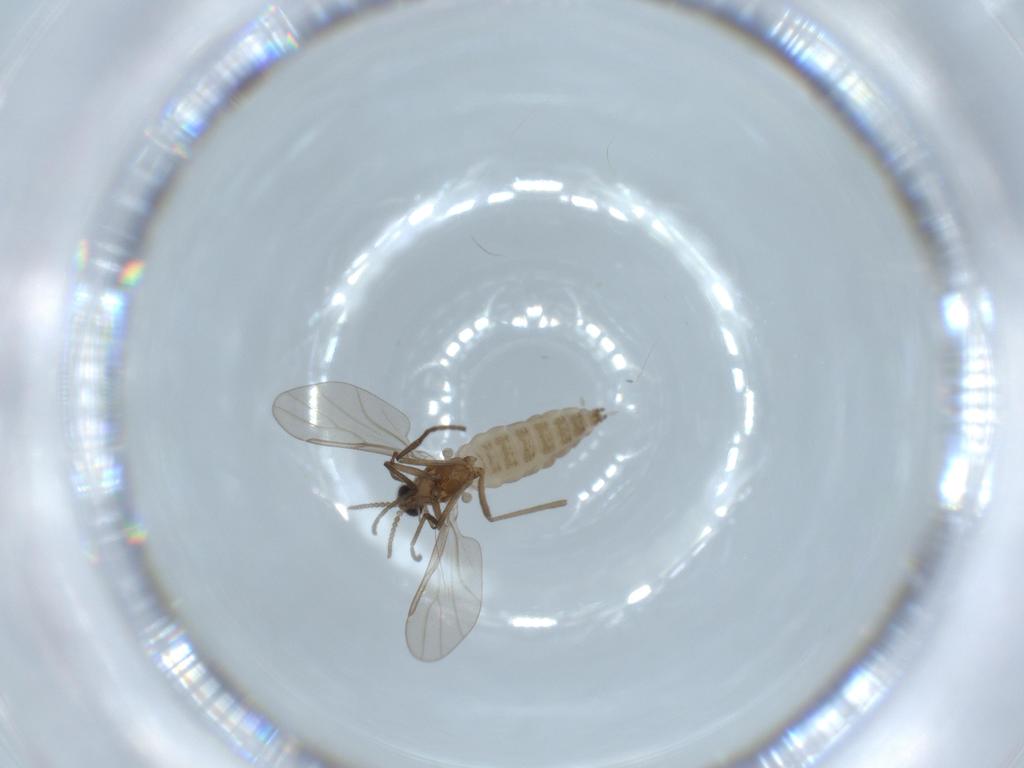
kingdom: Animalia
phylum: Arthropoda
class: Insecta
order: Diptera
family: Cecidomyiidae
